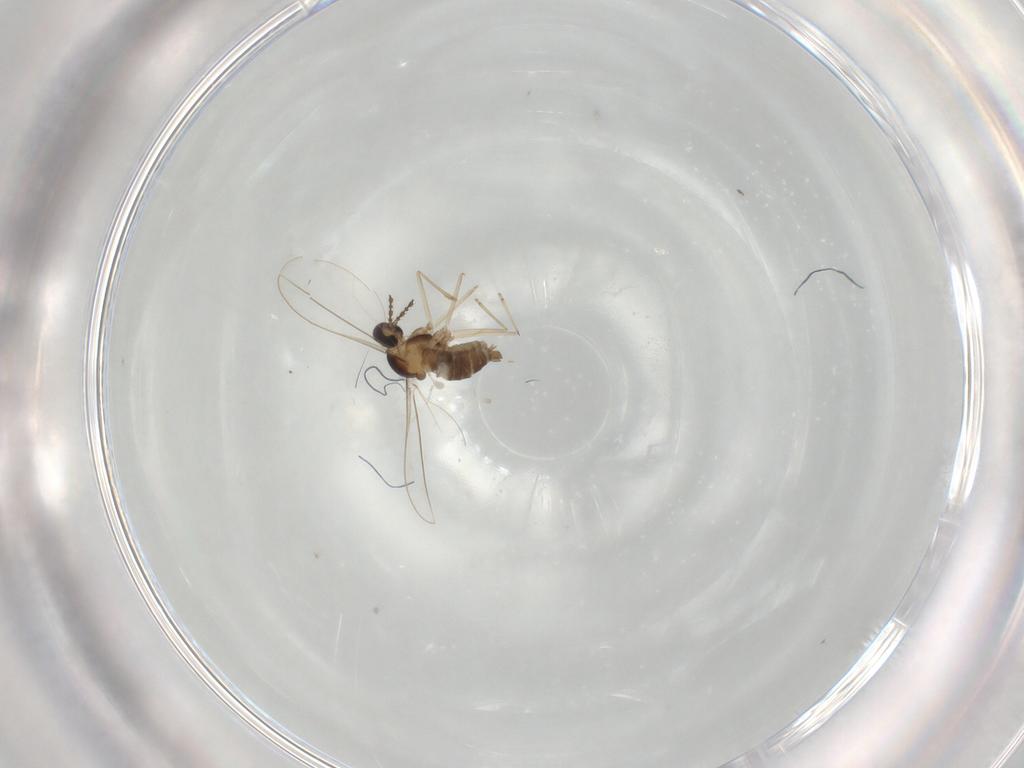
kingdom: Animalia
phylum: Arthropoda
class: Insecta
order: Diptera
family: Cecidomyiidae
